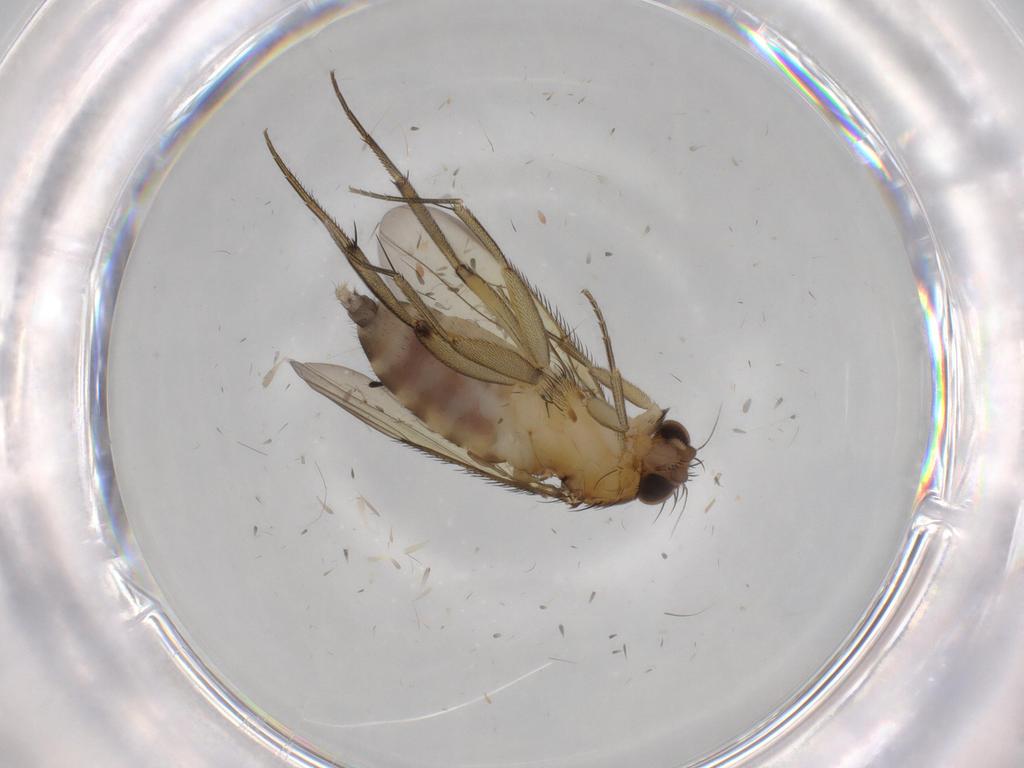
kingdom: Animalia
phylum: Arthropoda
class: Insecta
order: Diptera
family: Phoridae
